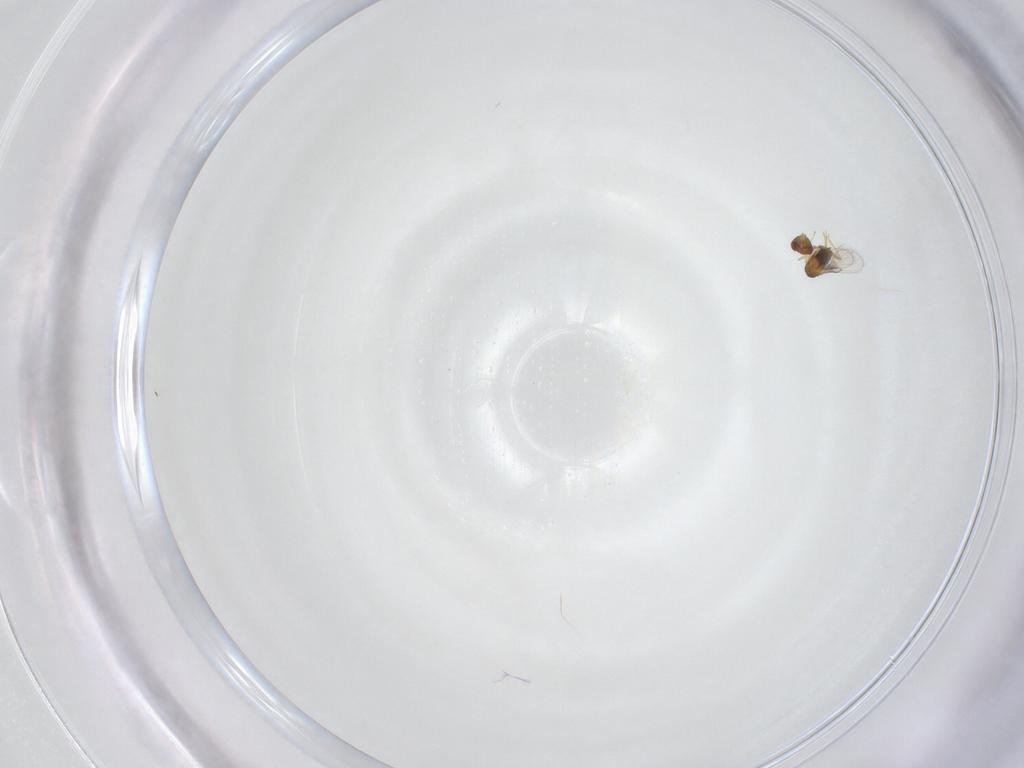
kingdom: Animalia
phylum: Arthropoda
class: Insecta
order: Hymenoptera
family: Trichogrammatidae
